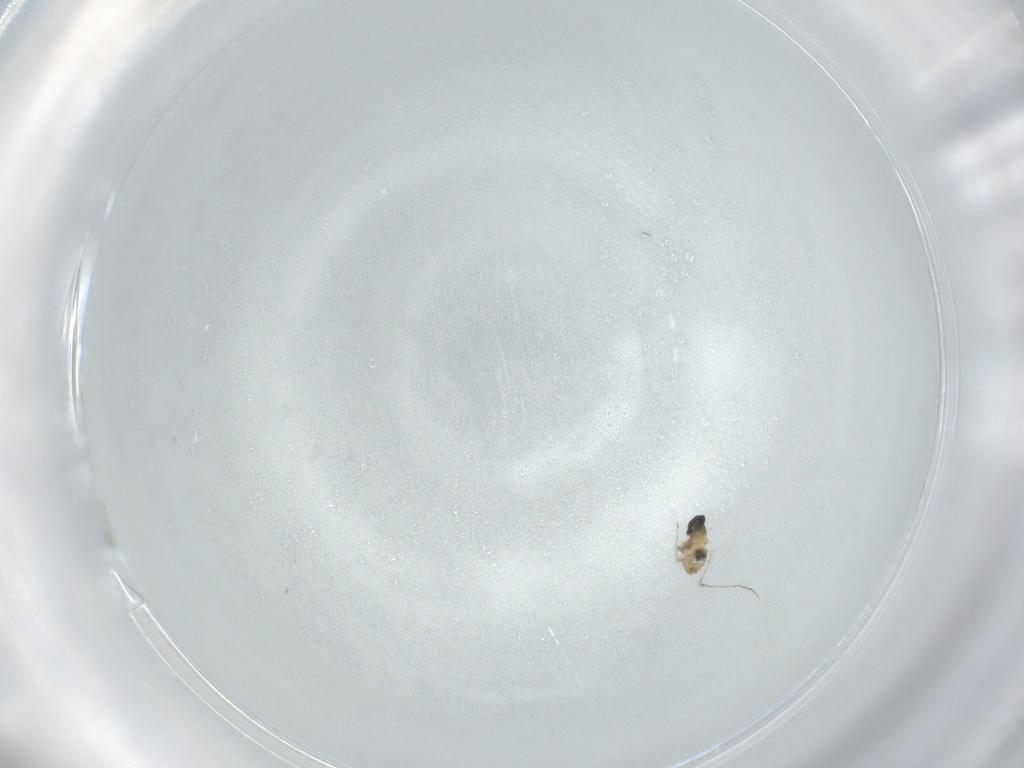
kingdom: Animalia
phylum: Arthropoda
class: Insecta
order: Diptera
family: Cecidomyiidae
